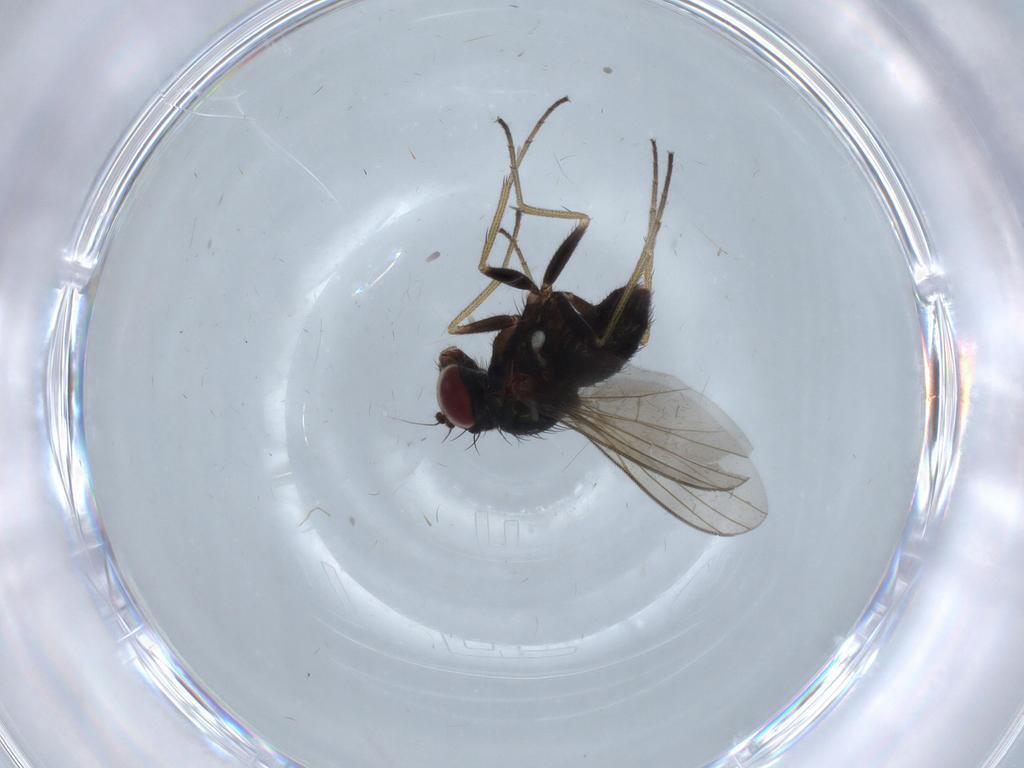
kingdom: Animalia
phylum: Arthropoda
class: Insecta
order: Diptera
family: Dolichopodidae
